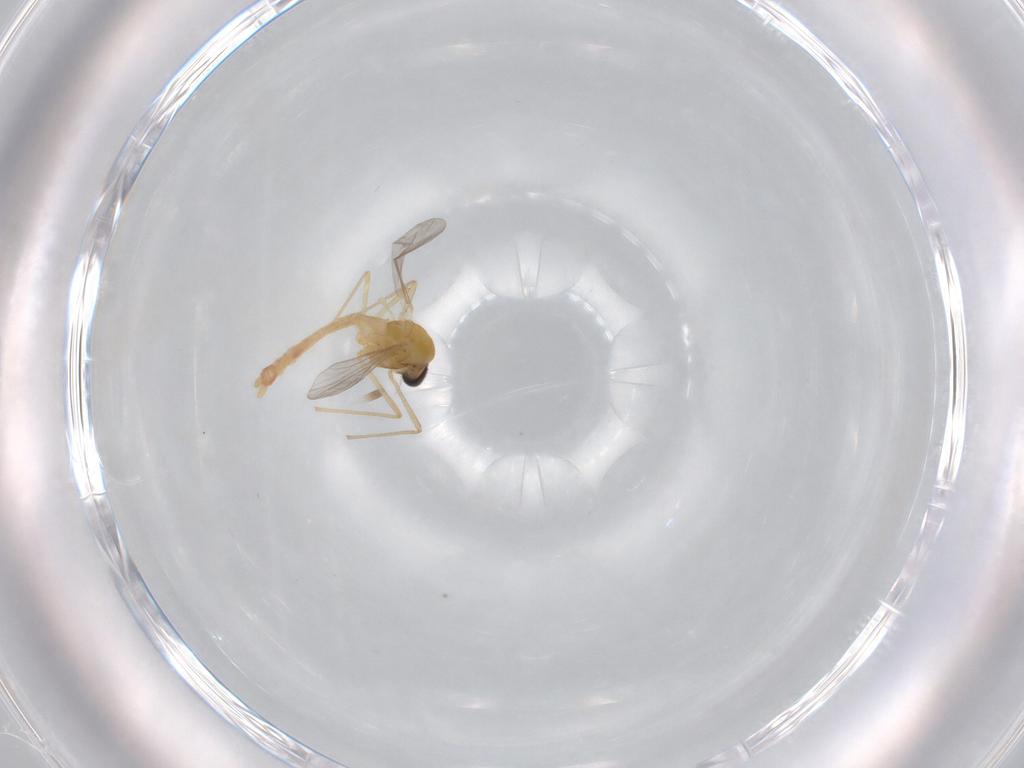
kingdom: Animalia
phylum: Arthropoda
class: Insecta
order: Diptera
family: Chironomidae
